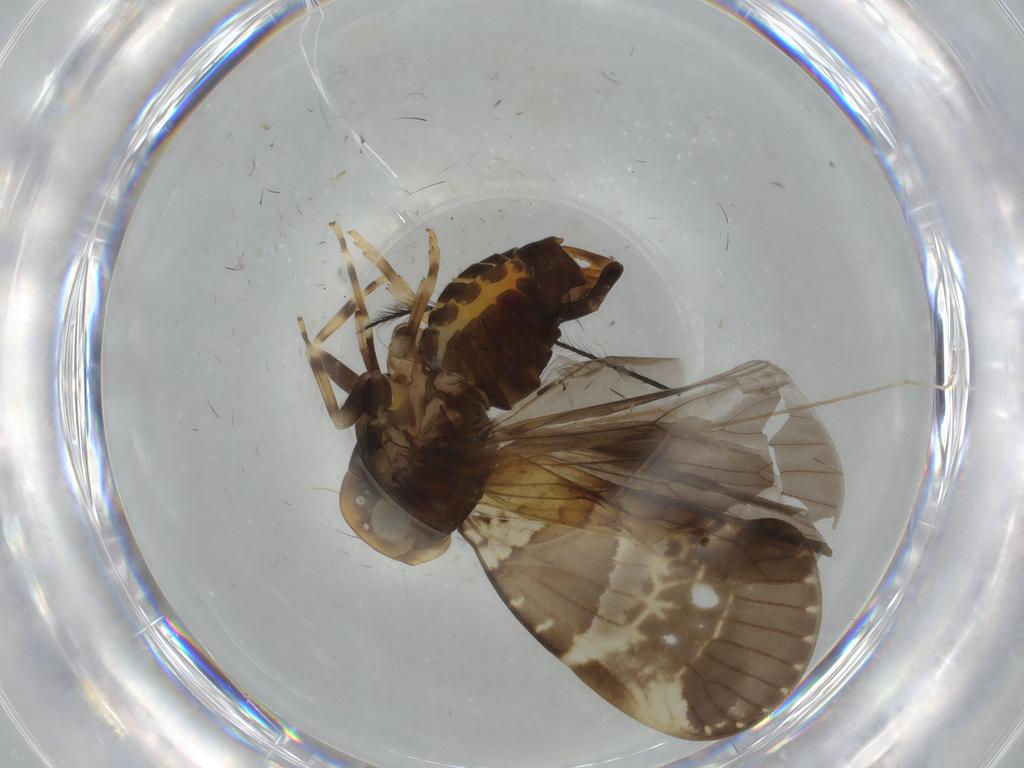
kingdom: Animalia
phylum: Arthropoda
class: Insecta
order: Hemiptera
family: Cixiidae
